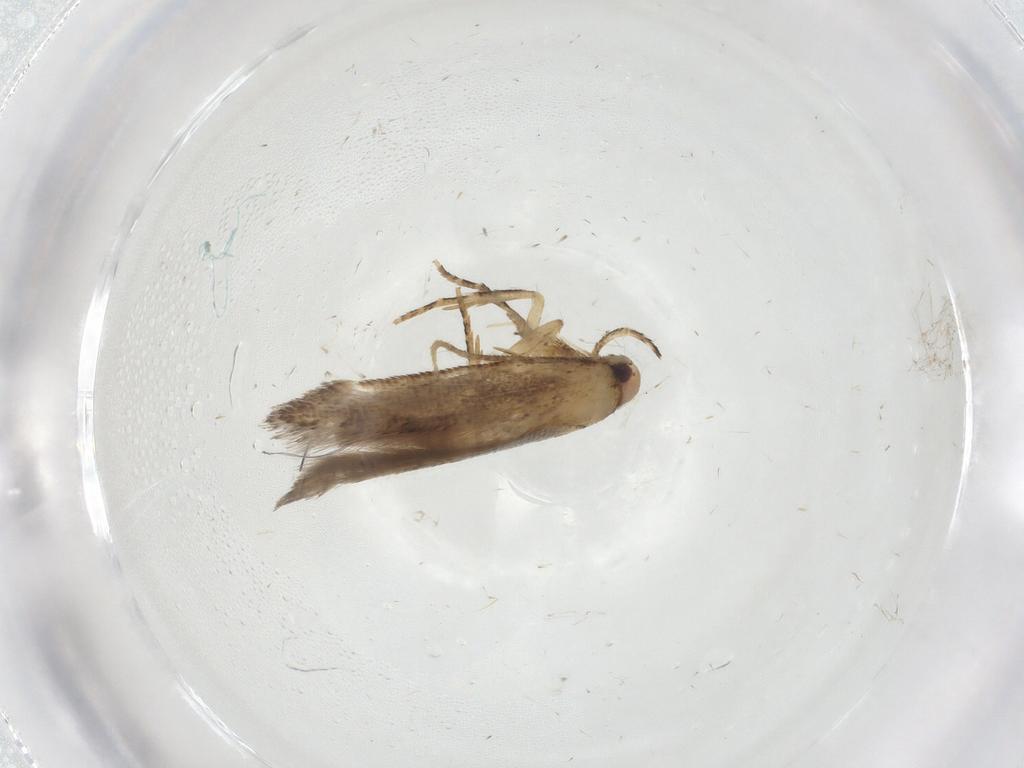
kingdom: Animalia
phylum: Arthropoda
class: Insecta
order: Lepidoptera
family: Cosmopterigidae
